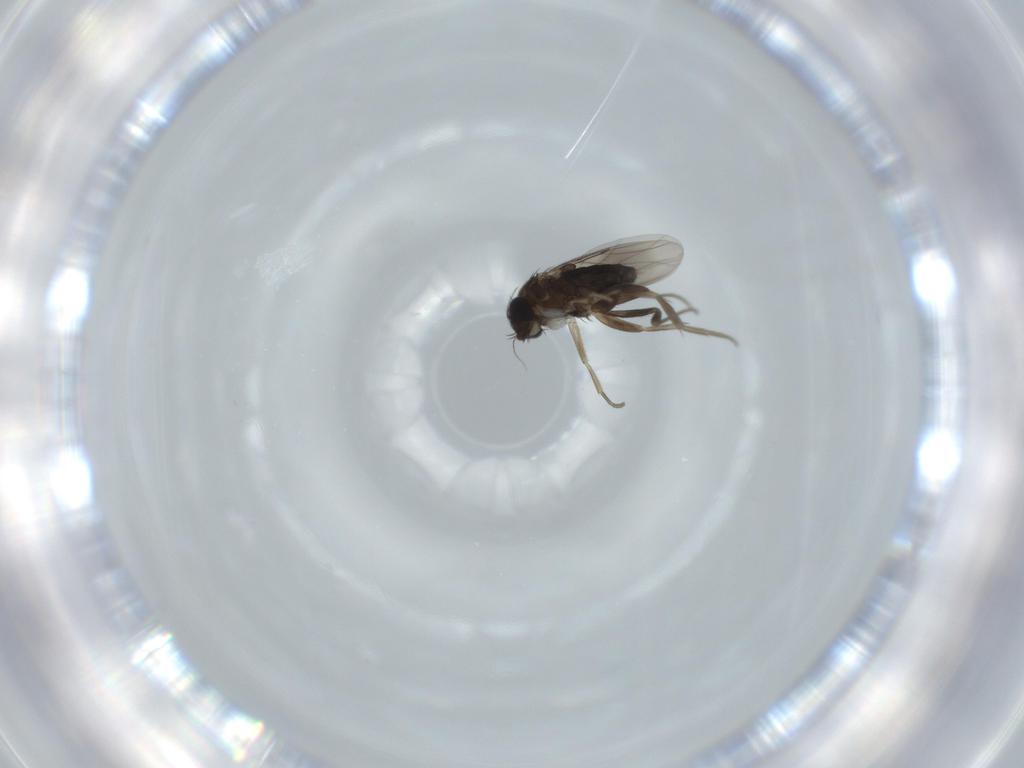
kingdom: Animalia
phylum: Arthropoda
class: Insecta
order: Diptera
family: Phoridae
